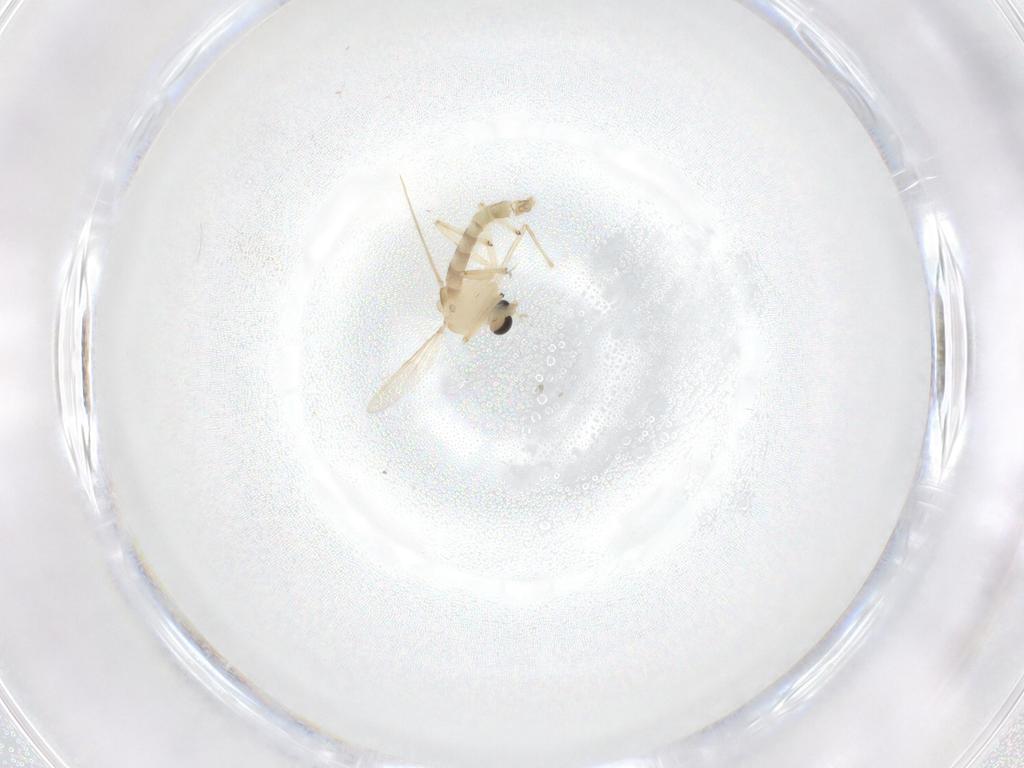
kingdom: Animalia
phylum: Arthropoda
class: Insecta
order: Diptera
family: Chironomidae
